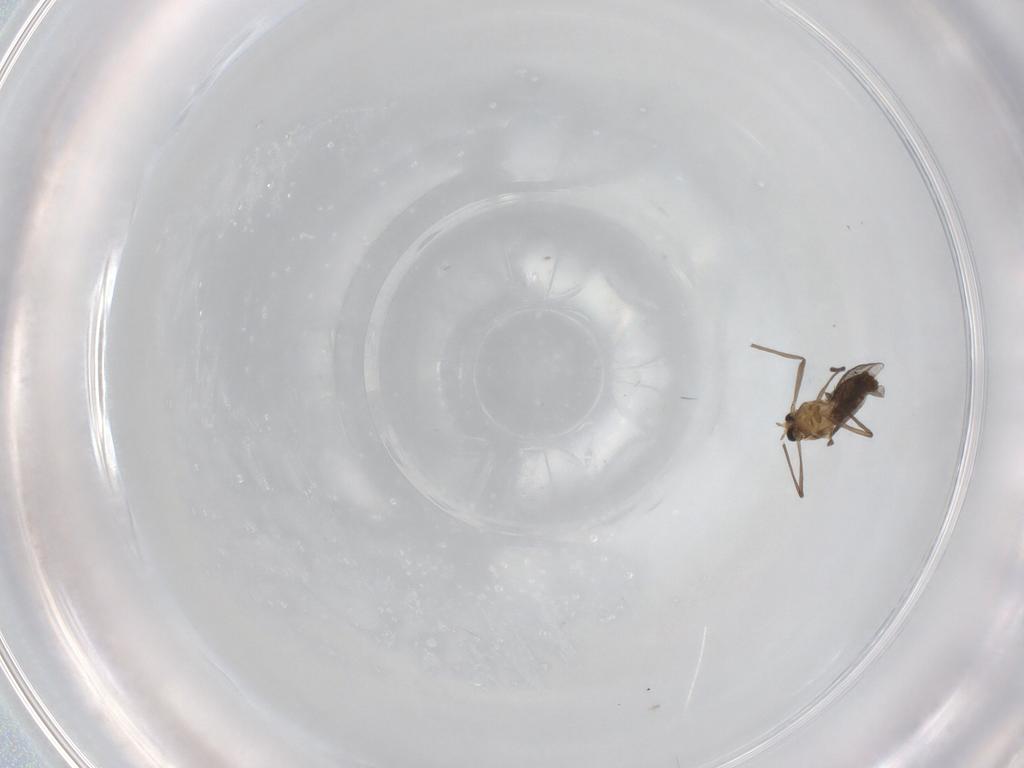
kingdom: Animalia
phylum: Arthropoda
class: Insecta
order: Diptera
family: Chironomidae
